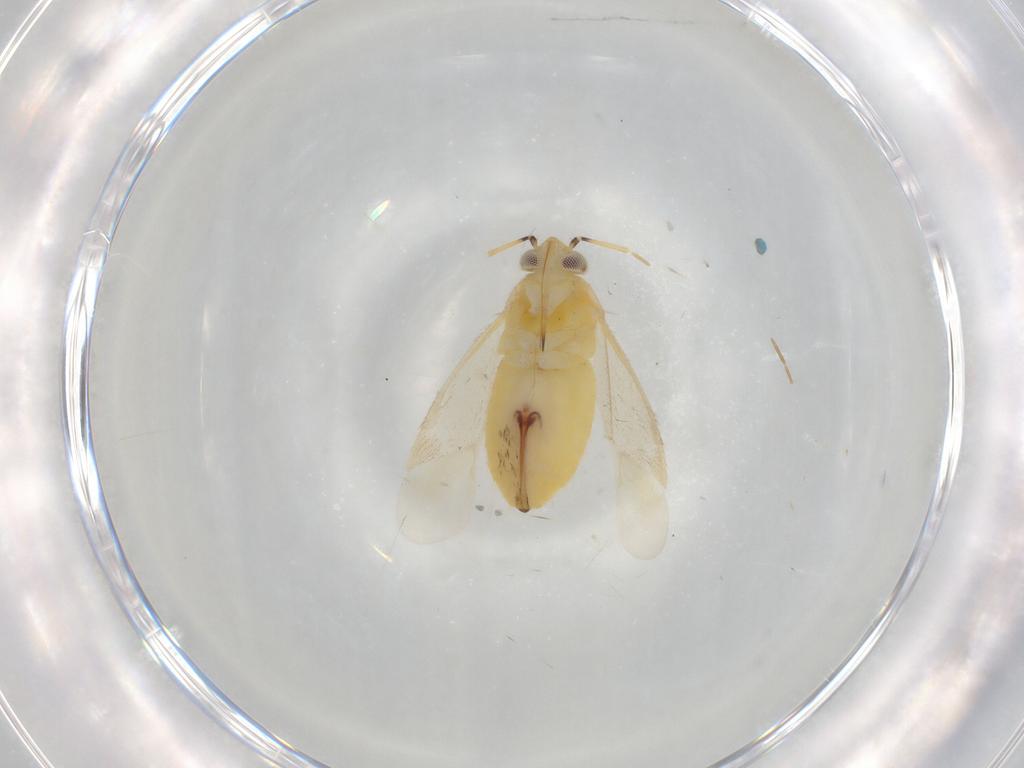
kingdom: Animalia
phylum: Arthropoda
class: Insecta
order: Hemiptera
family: Miridae
